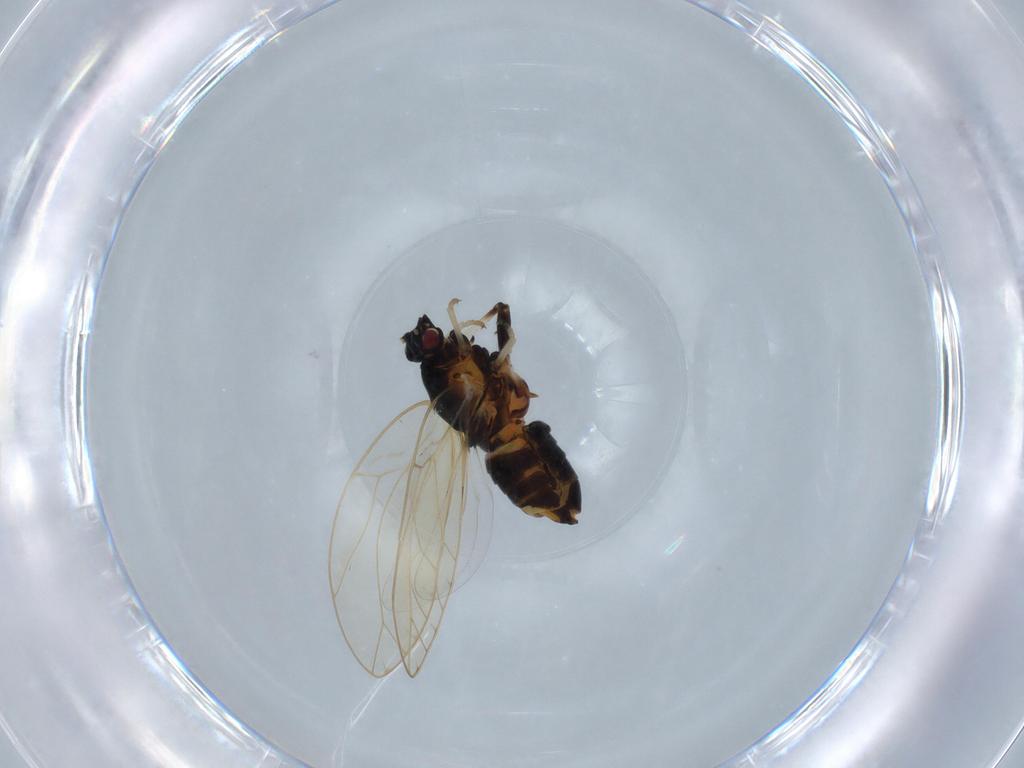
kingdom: Animalia
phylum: Arthropoda
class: Insecta
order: Hemiptera
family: Triozidae
